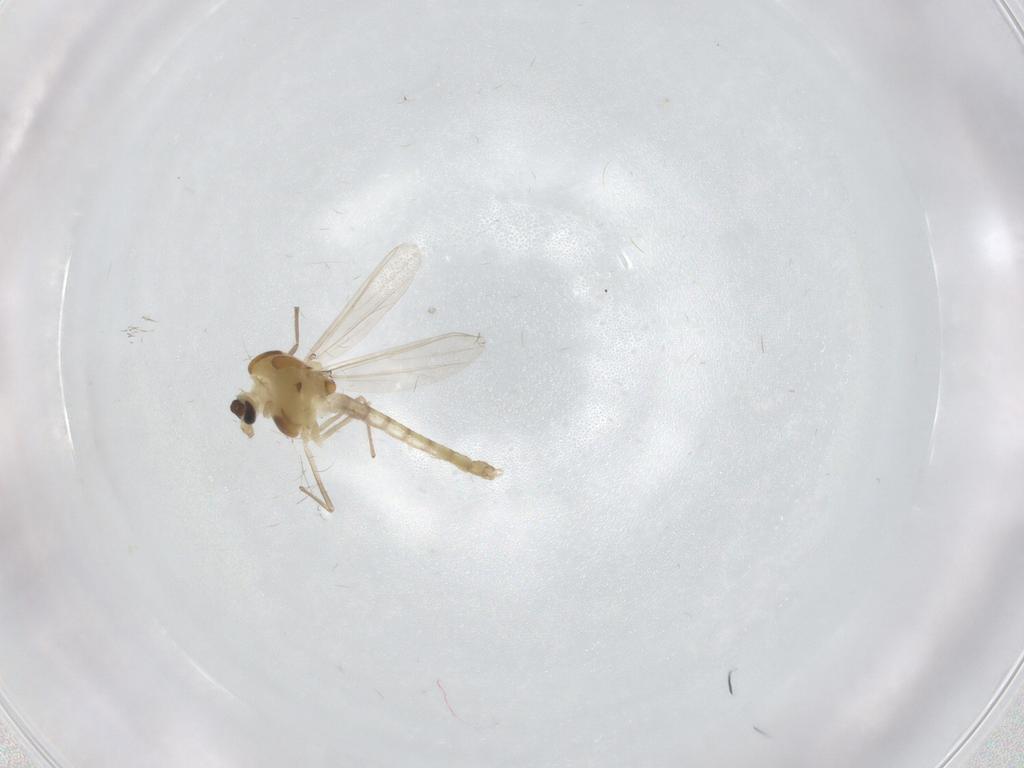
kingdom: Animalia
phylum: Arthropoda
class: Insecta
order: Diptera
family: Chironomidae
